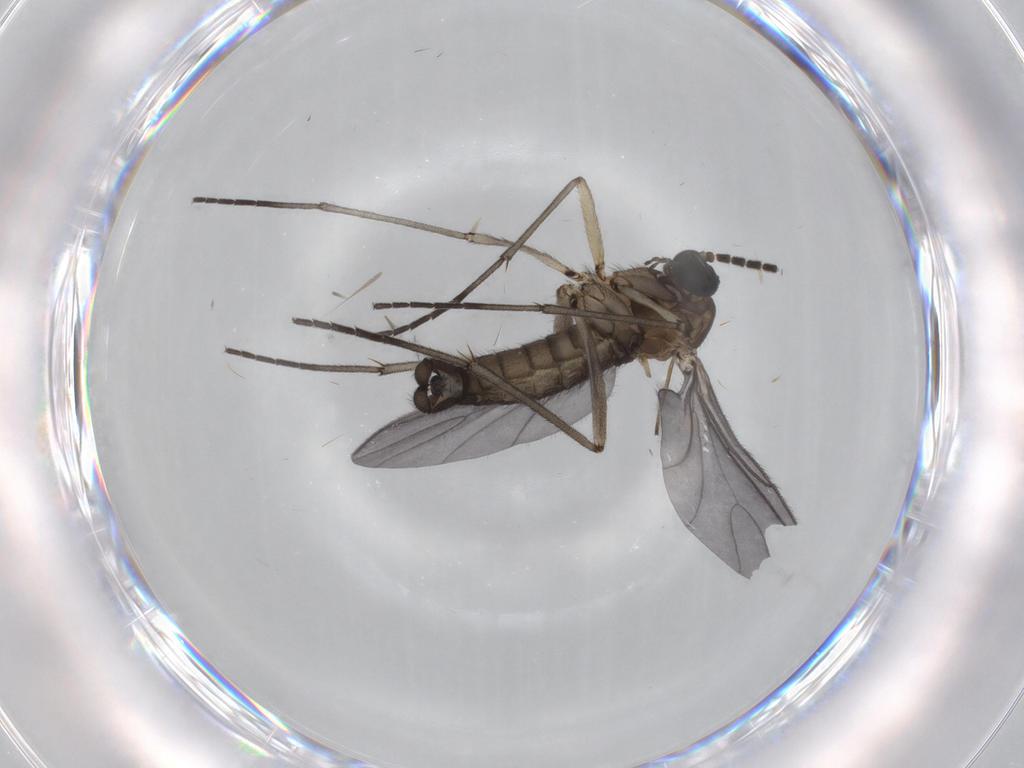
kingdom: Animalia
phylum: Arthropoda
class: Insecta
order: Diptera
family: Sciaridae
